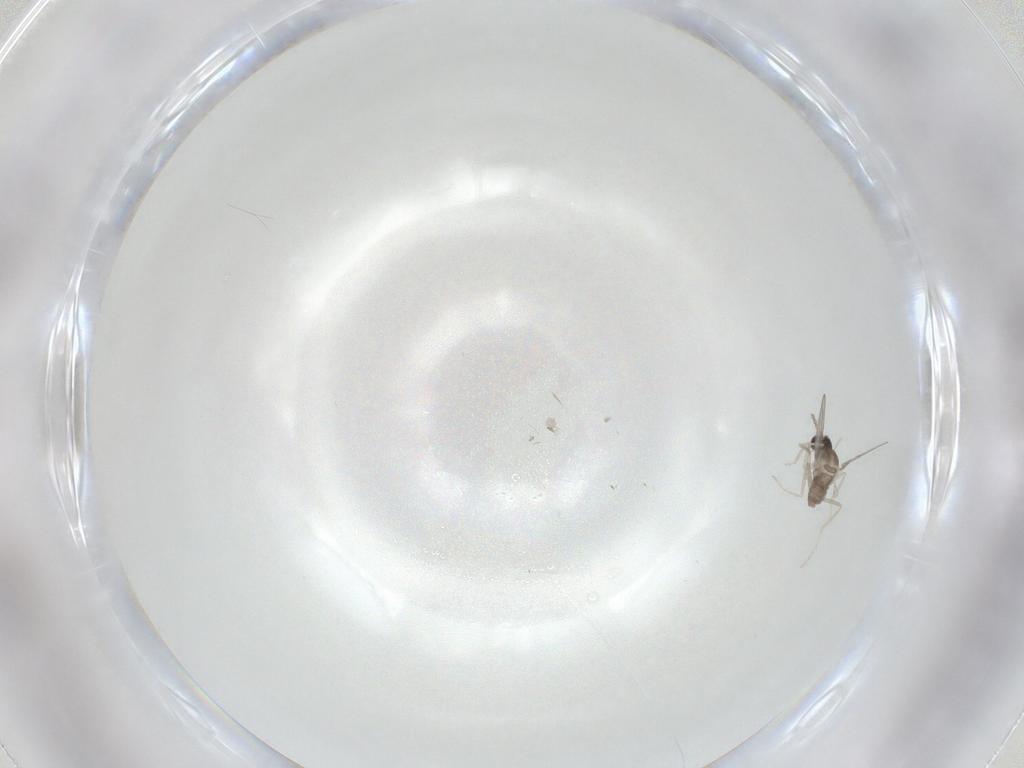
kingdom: Animalia
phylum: Arthropoda
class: Insecta
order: Diptera
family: Cecidomyiidae
